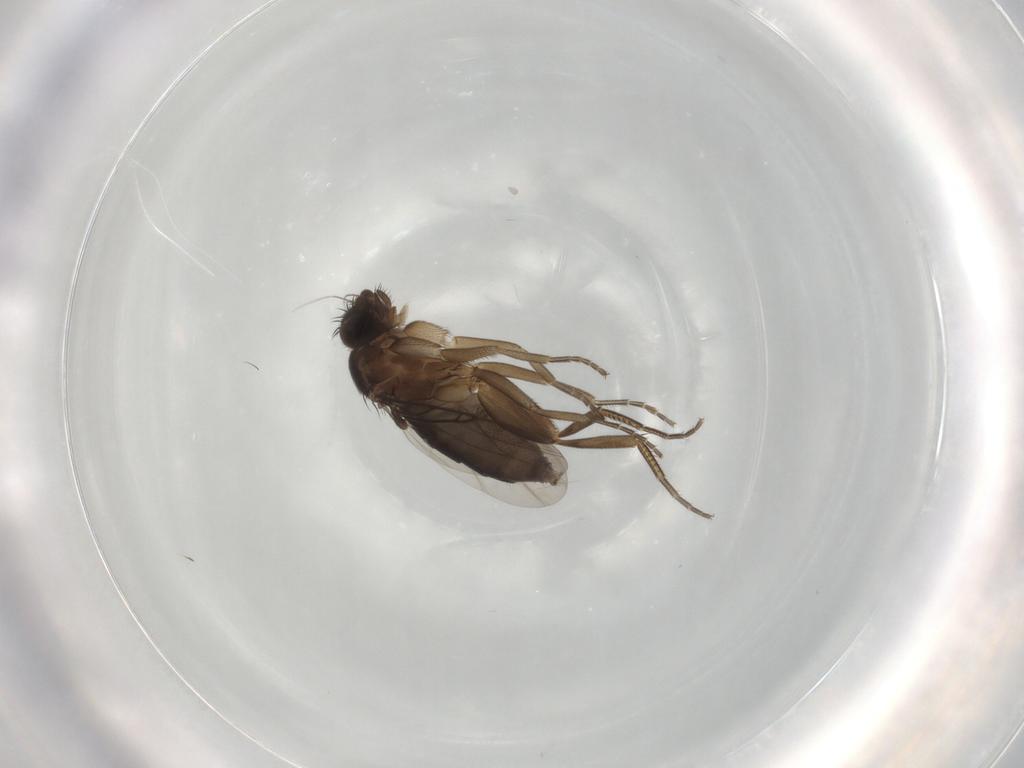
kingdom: Animalia
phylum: Arthropoda
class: Insecta
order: Diptera
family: Phoridae
